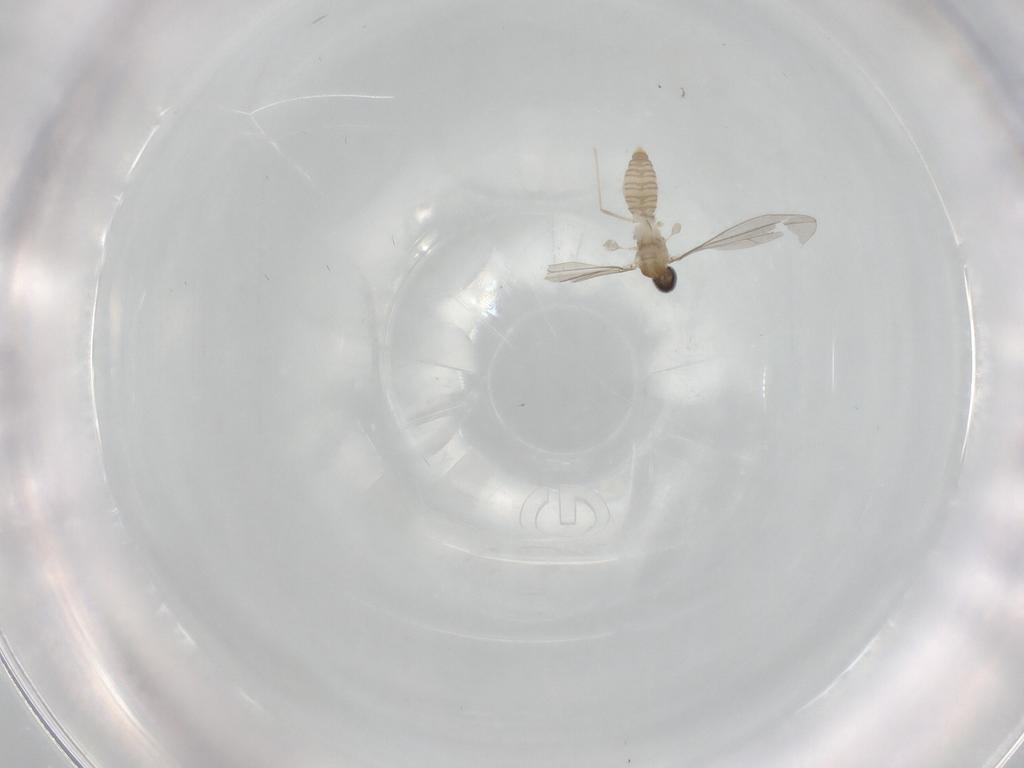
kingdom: Animalia
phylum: Arthropoda
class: Insecta
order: Diptera
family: Cecidomyiidae
